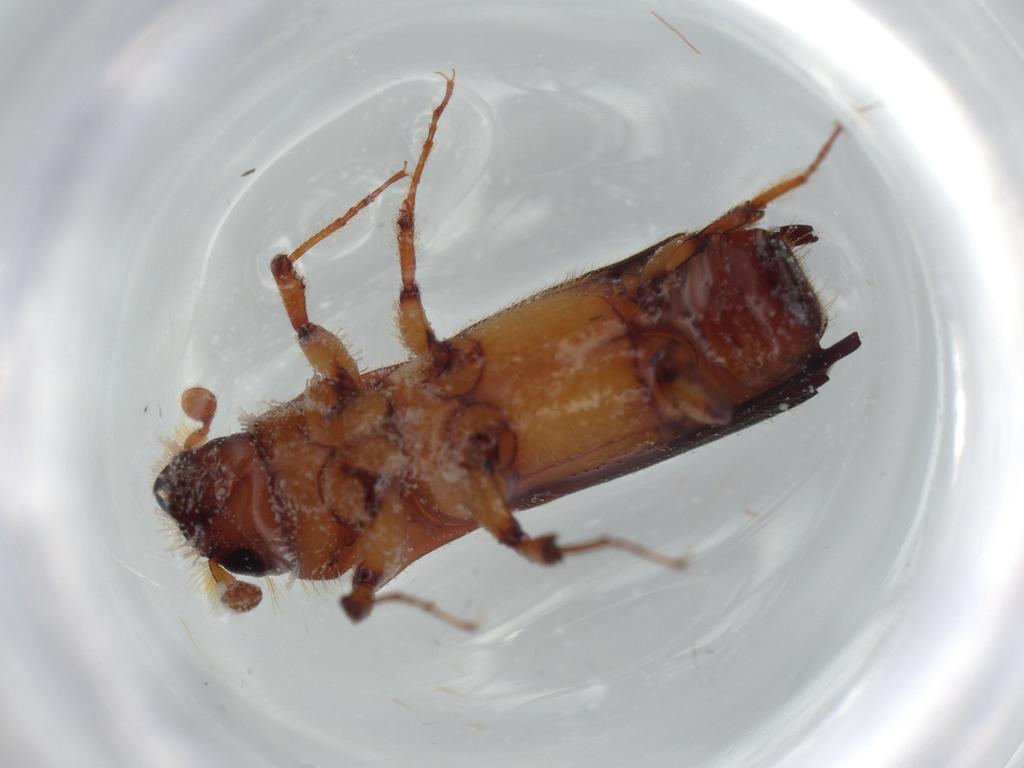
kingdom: Animalia
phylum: Arthropoda
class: Insecta
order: Coleoptera
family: Curculionidae
